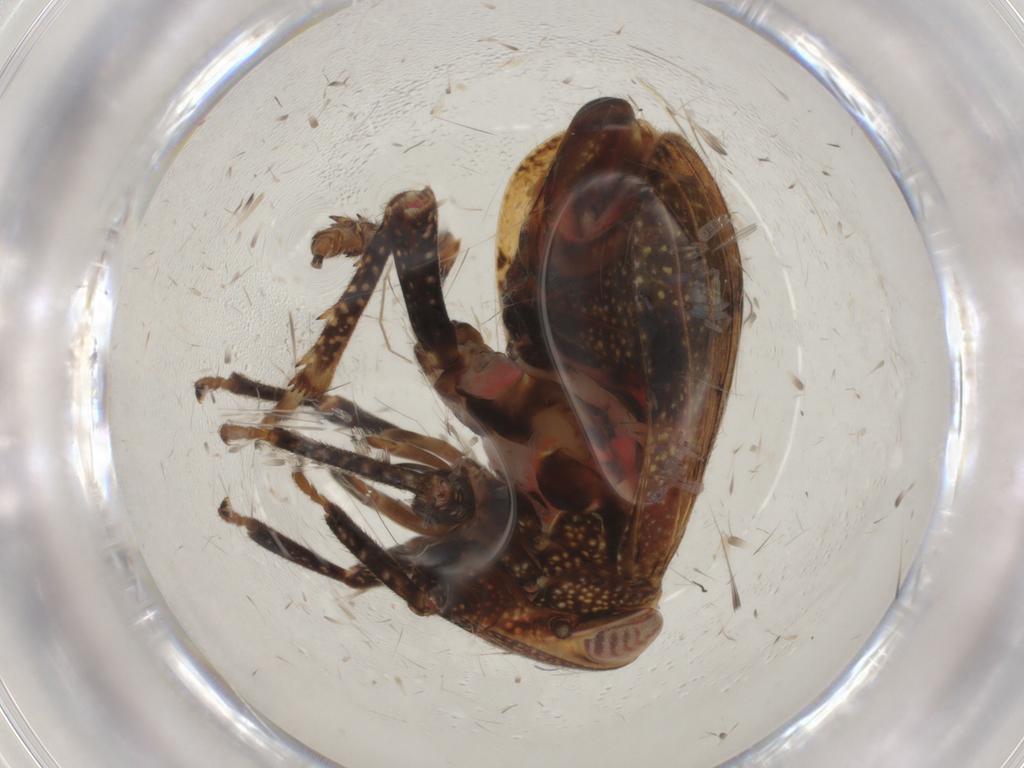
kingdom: Animalia
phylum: Arthropoda
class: Insecta
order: Hemiptera
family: Tropiduchidae
